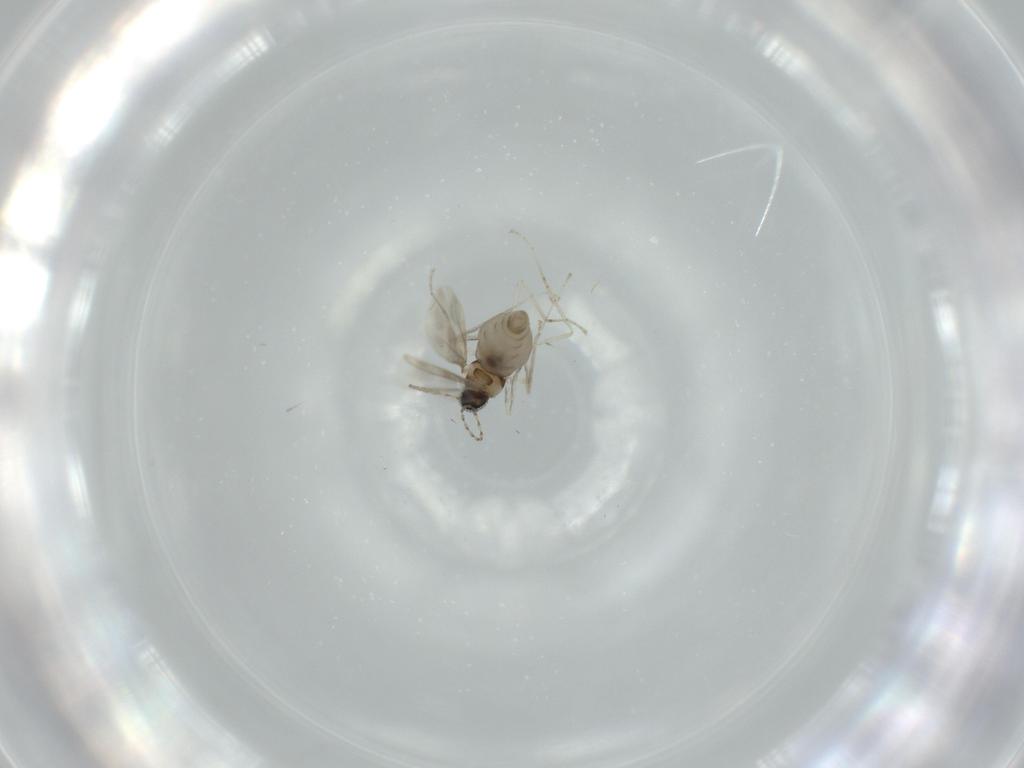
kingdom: Animalia
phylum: Arthropoda
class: Insecta
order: Diptera
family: Cecidomyiidae
